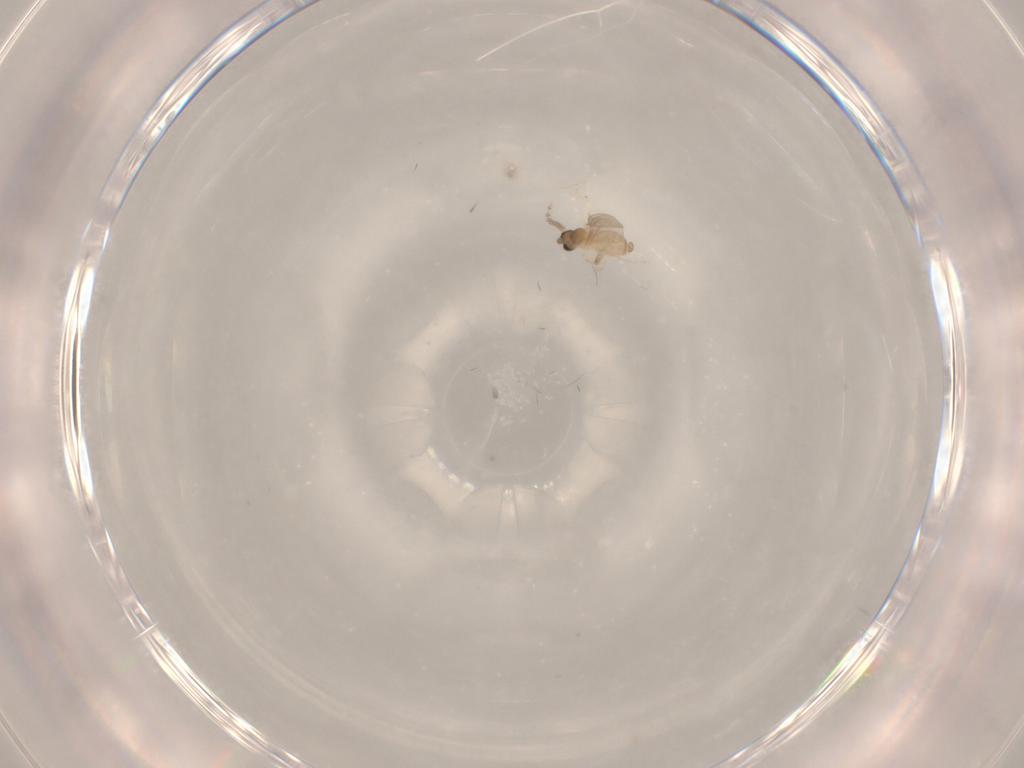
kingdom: Animalia
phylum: Arthropoda
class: Insecta
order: Diptera
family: Cecidomyiidae
